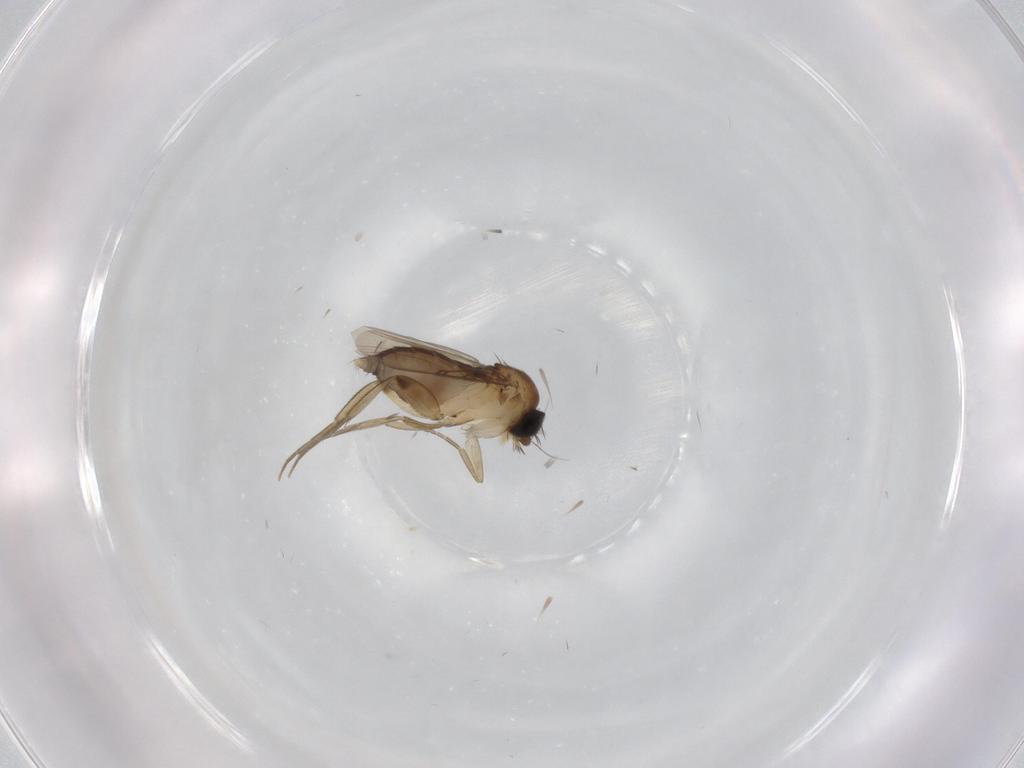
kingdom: Animalia
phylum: Arthropoda
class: Insecta
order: Diptera
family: Phoridae
